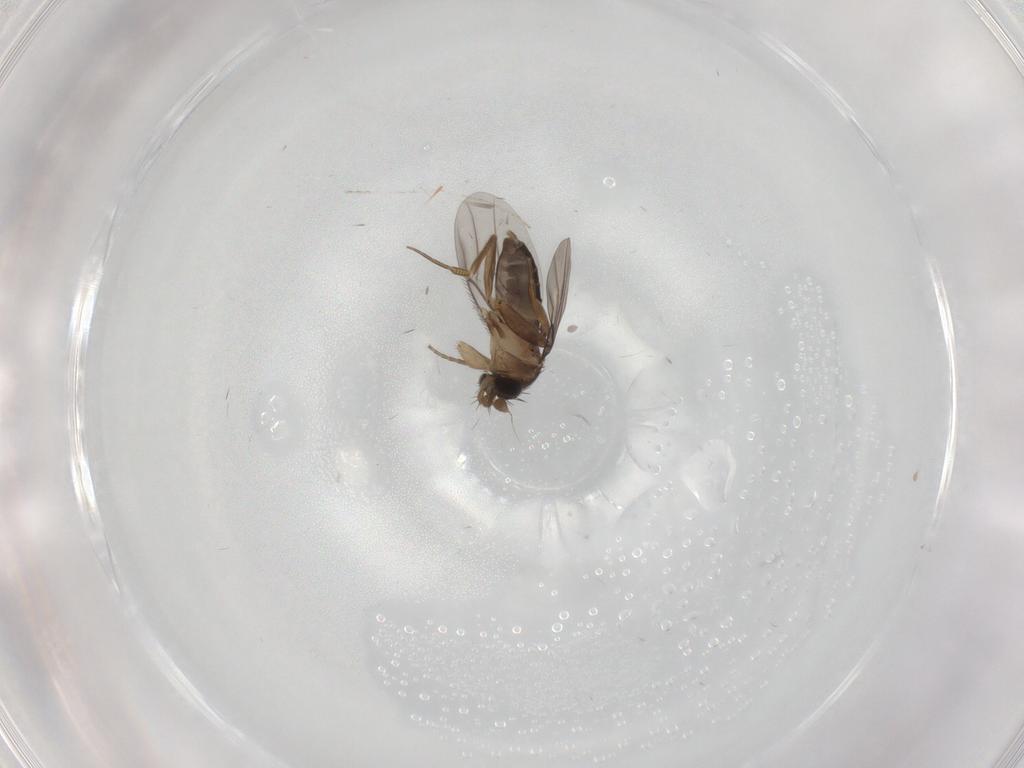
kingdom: Animalia
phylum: Arthropoda
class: Insecta
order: Diptera
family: Phoridae
